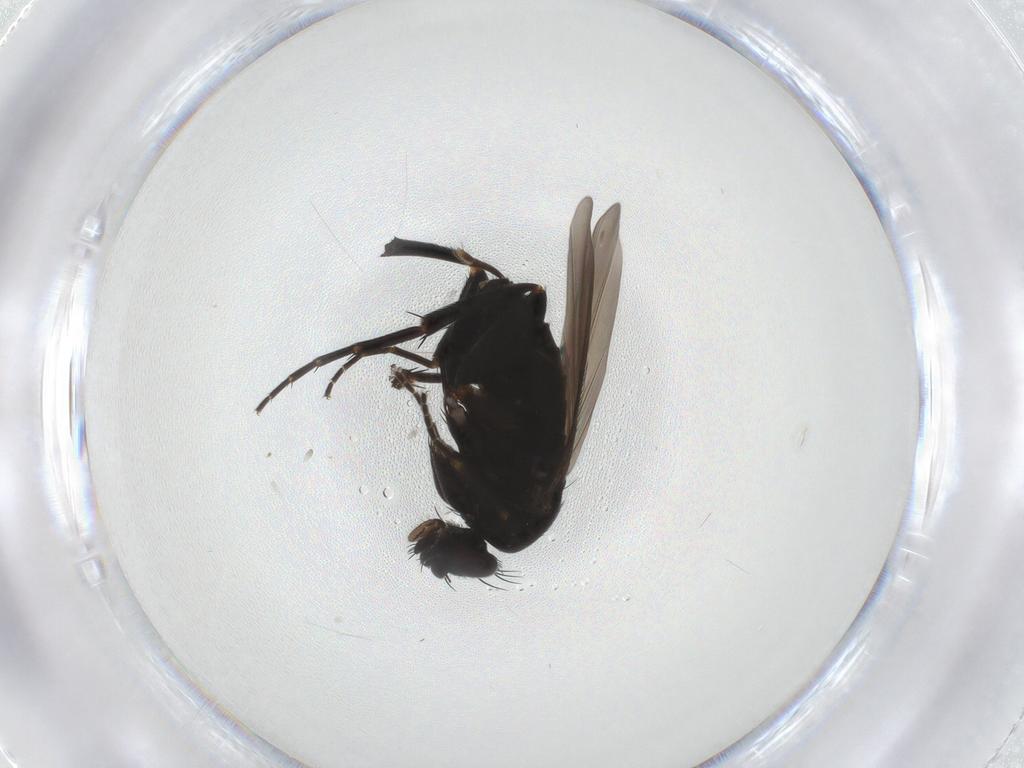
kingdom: Animalia
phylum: Arthropoda
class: Insecta
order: Diptera
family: Phoridae
